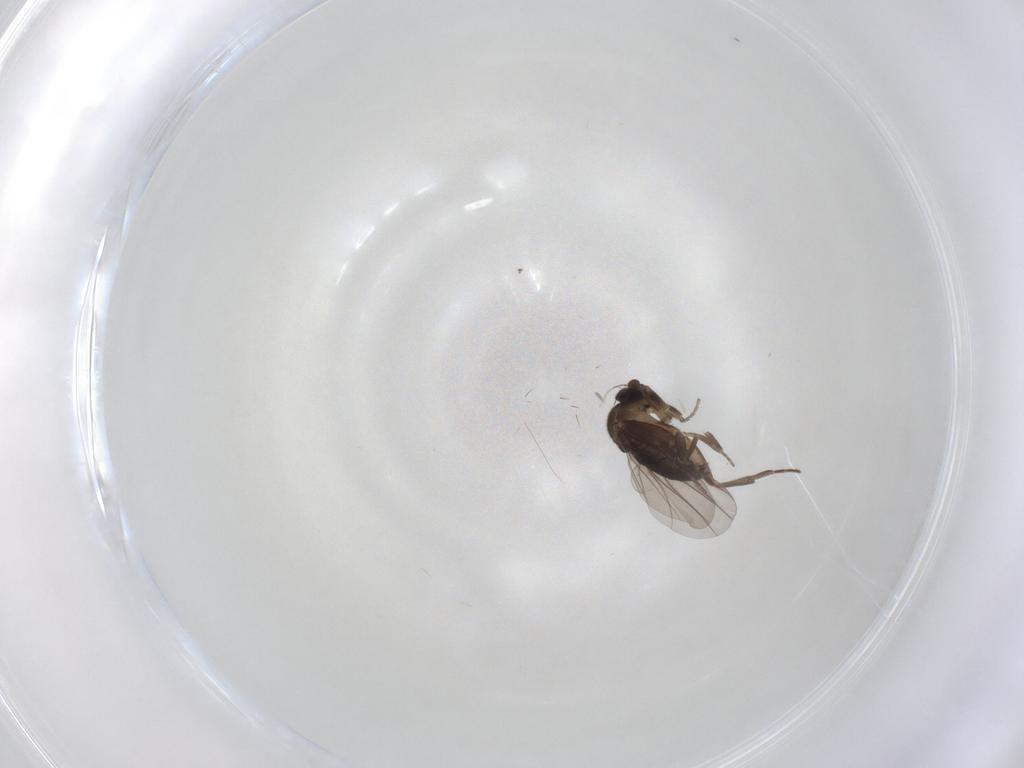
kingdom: Animalia
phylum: Arthropoda
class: Insecta
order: Diptera
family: Phoridae
